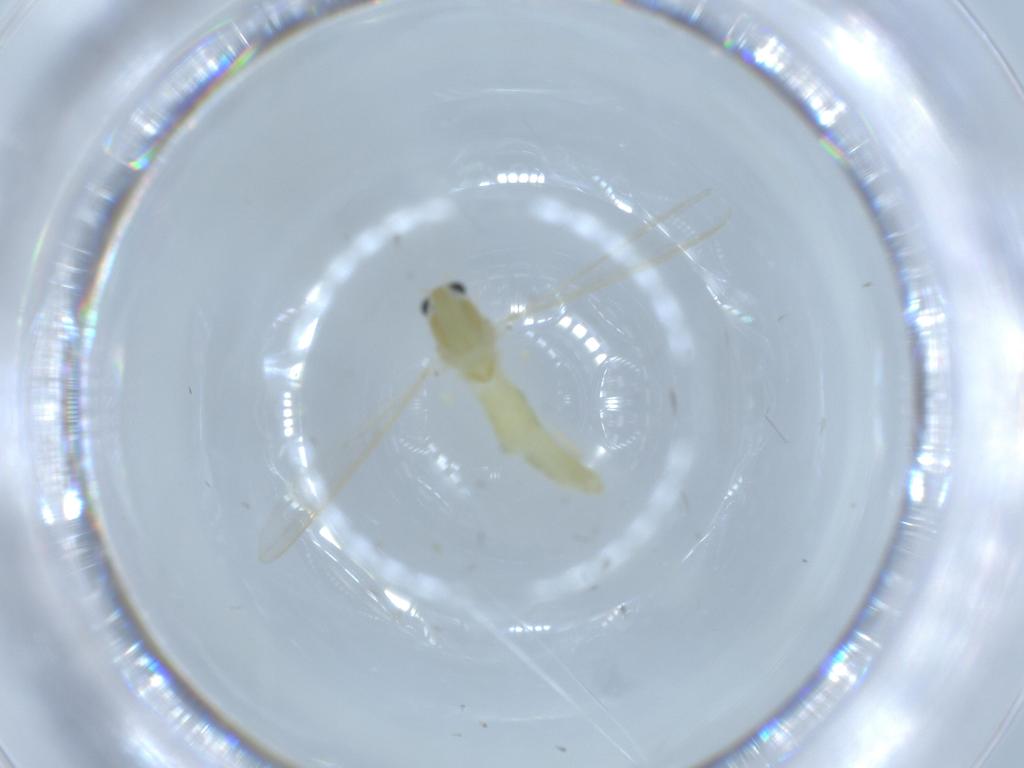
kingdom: Animalia
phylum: Arthropoda
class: Insecta
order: Diptera
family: Chironomidae
